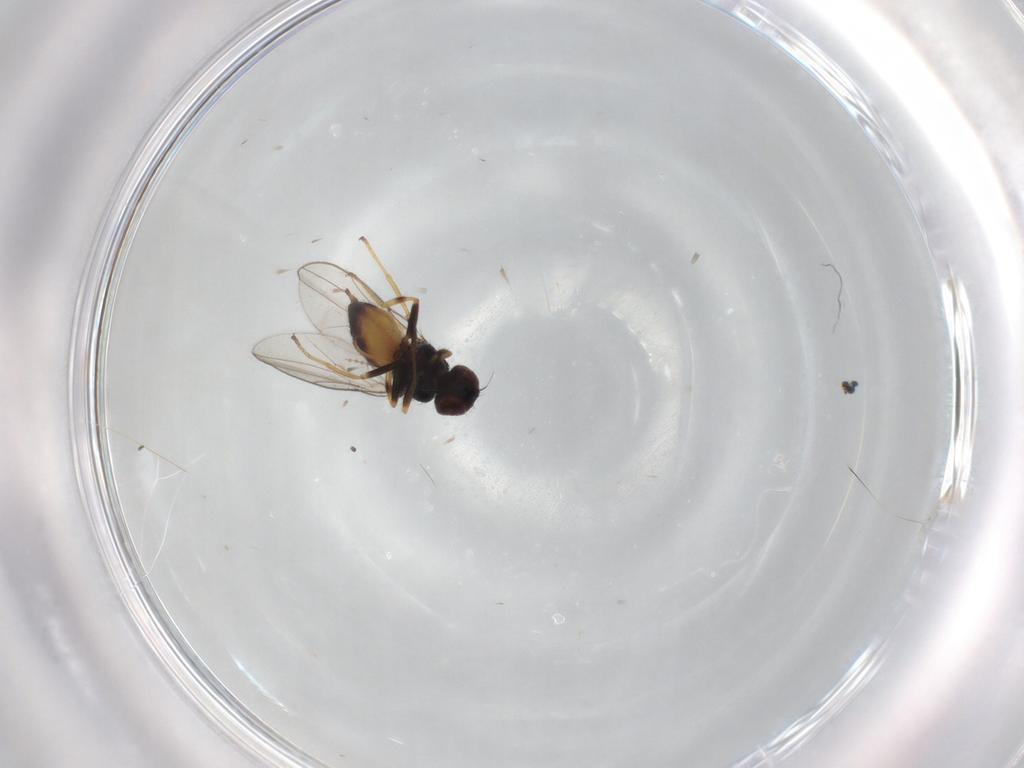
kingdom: Animalia
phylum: Arthropoda
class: Insecta
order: Diptera
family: Chloropidae
